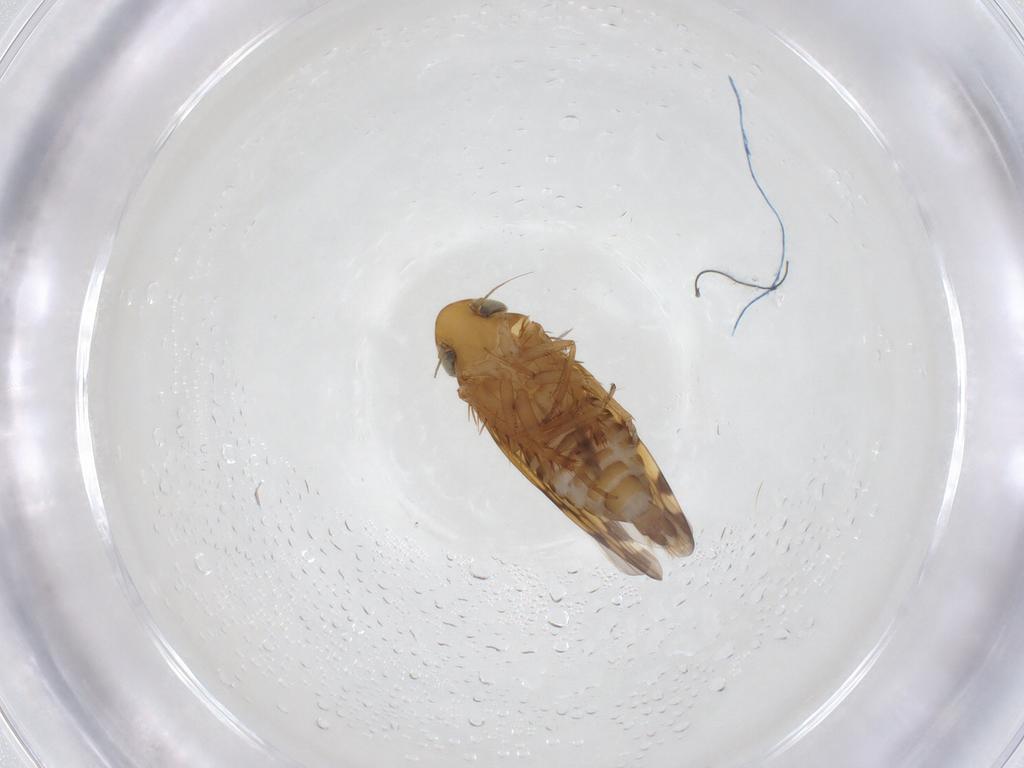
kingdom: Animalia
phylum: Arthropoda
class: Insecta
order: Hemiptera
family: Cicadellidae
